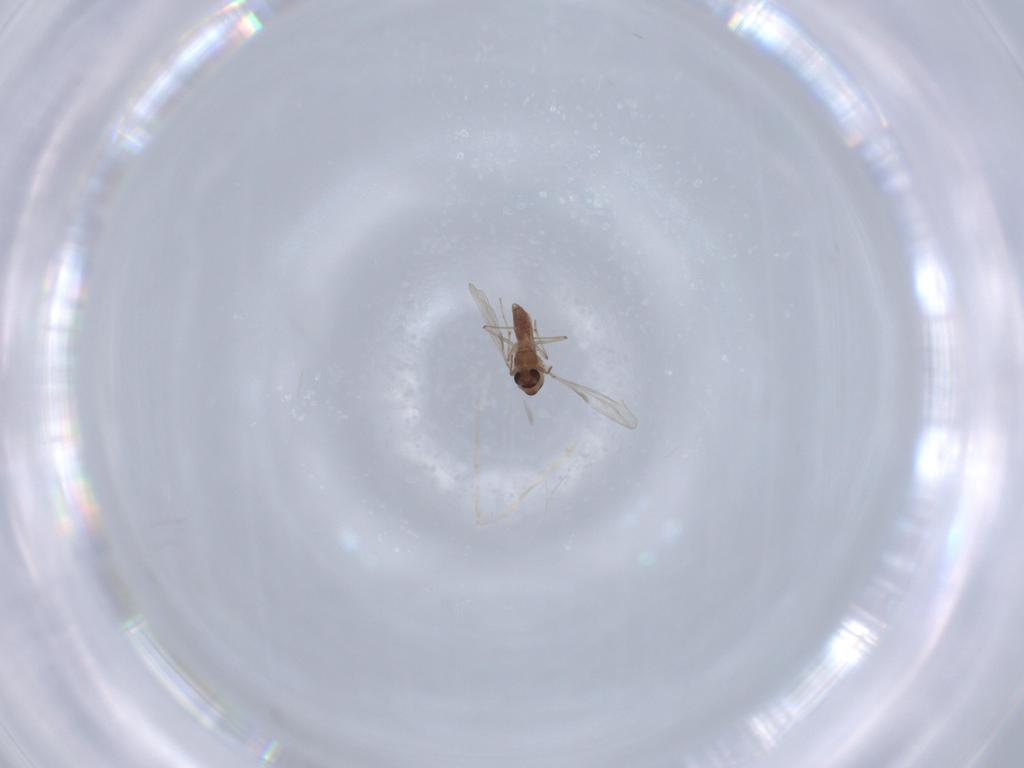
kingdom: Animalia
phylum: Arthropoda
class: Insecta
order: Diptera
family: Chironomidae
